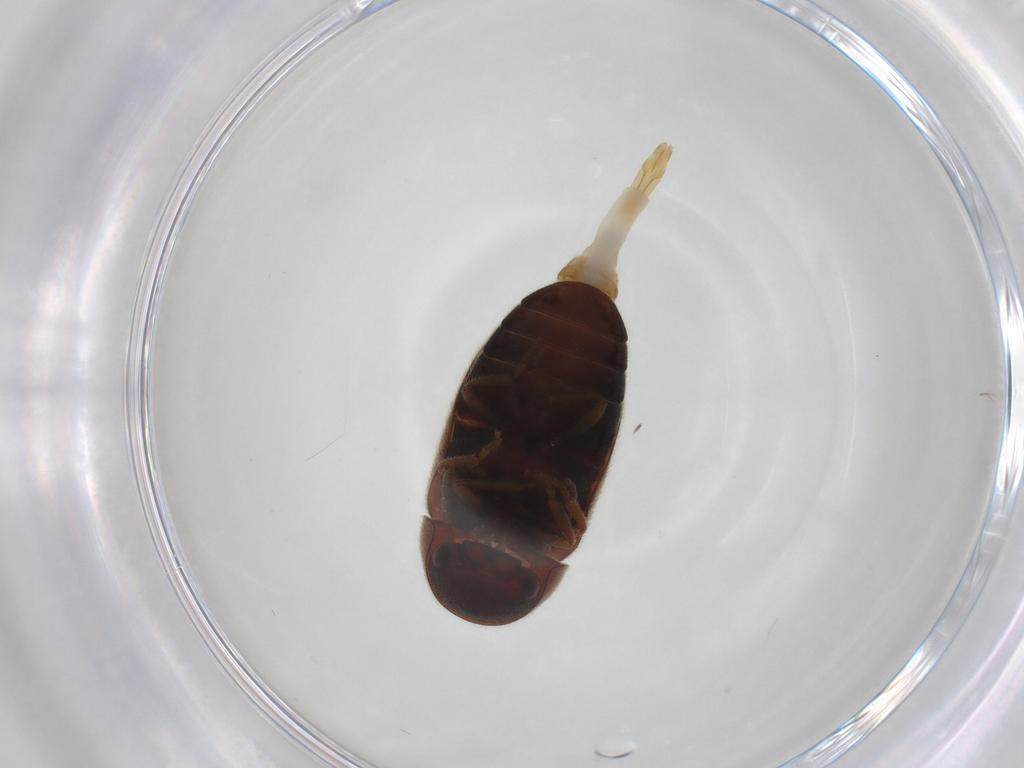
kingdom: Animalia
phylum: Arthropoda
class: Insecta
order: Coleoptera
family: Ptinidae
